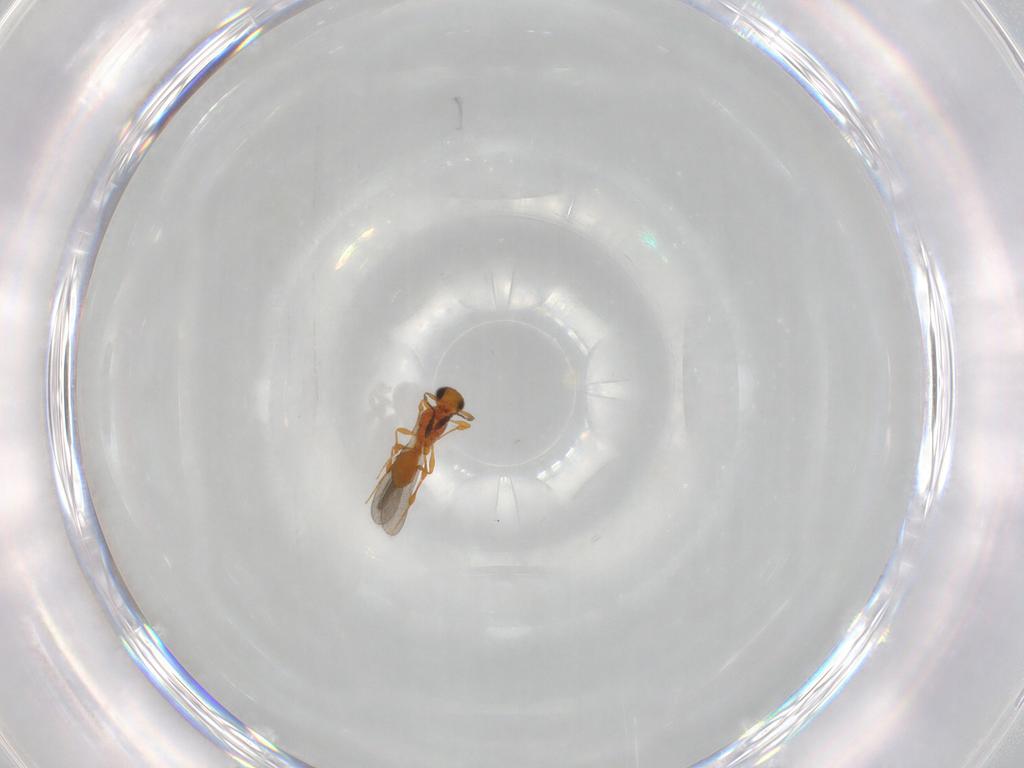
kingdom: Animalia
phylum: Arthropoda
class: Insecta
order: Hymenoptera
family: Platygastridae
